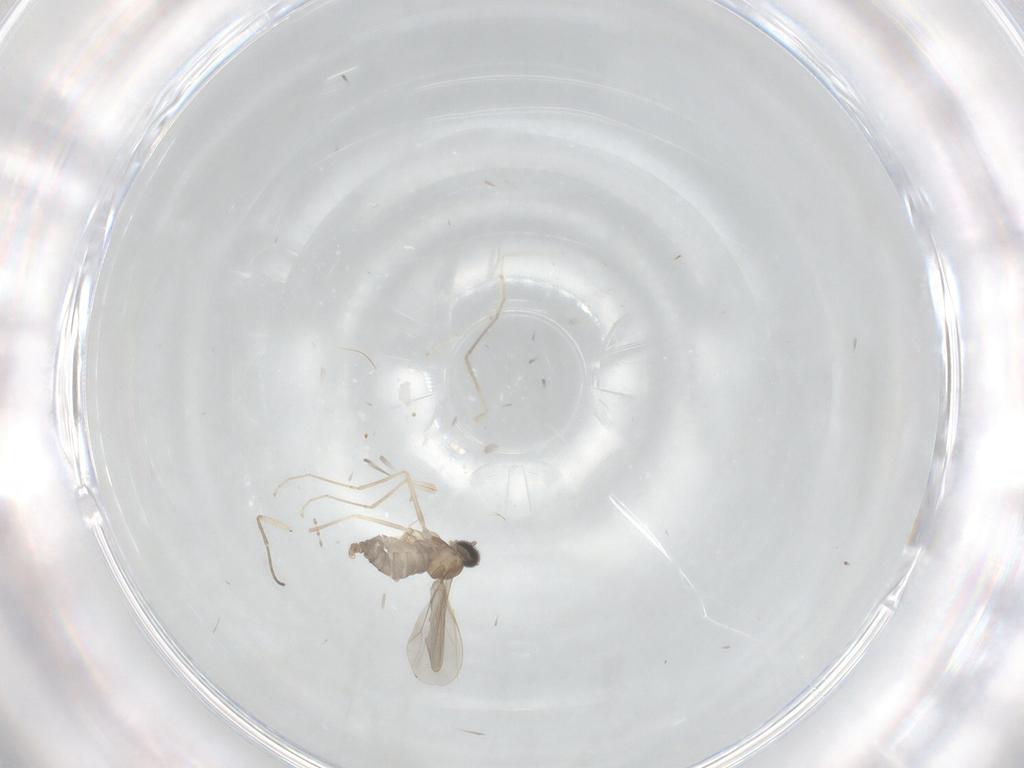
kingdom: Animalia
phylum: Arthropoda
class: Insecta
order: Diptera
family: Cecidomyiidae
